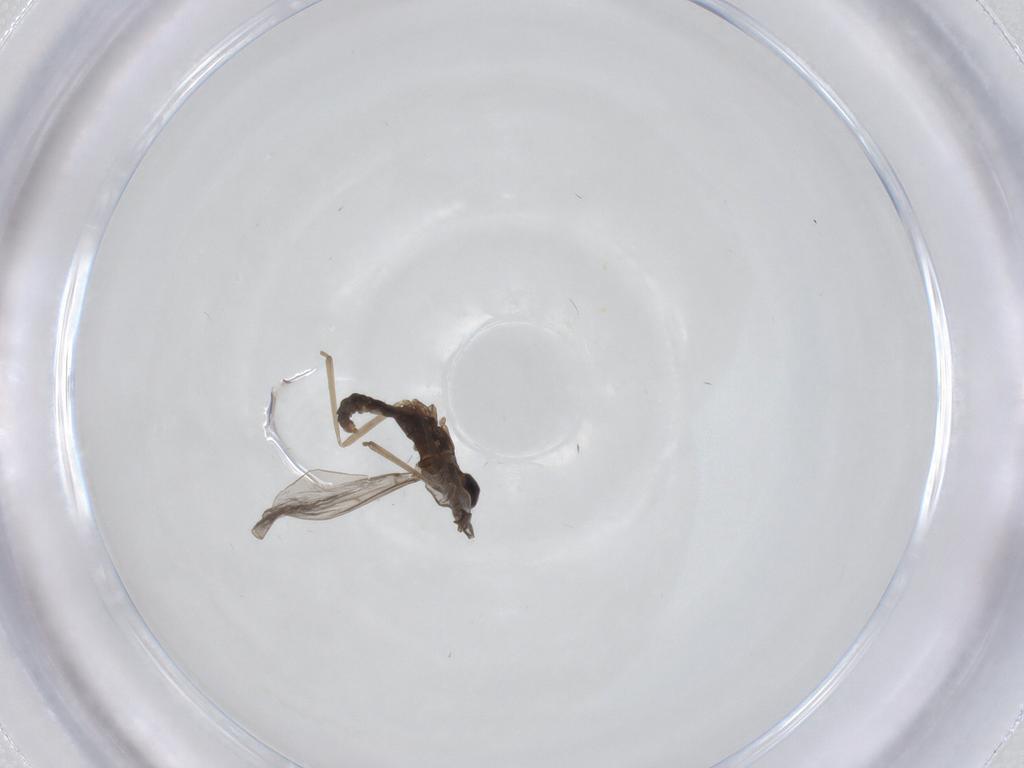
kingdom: Animalia
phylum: Arthropoda
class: Insecta
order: Diptera
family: Cecidomyiidae
